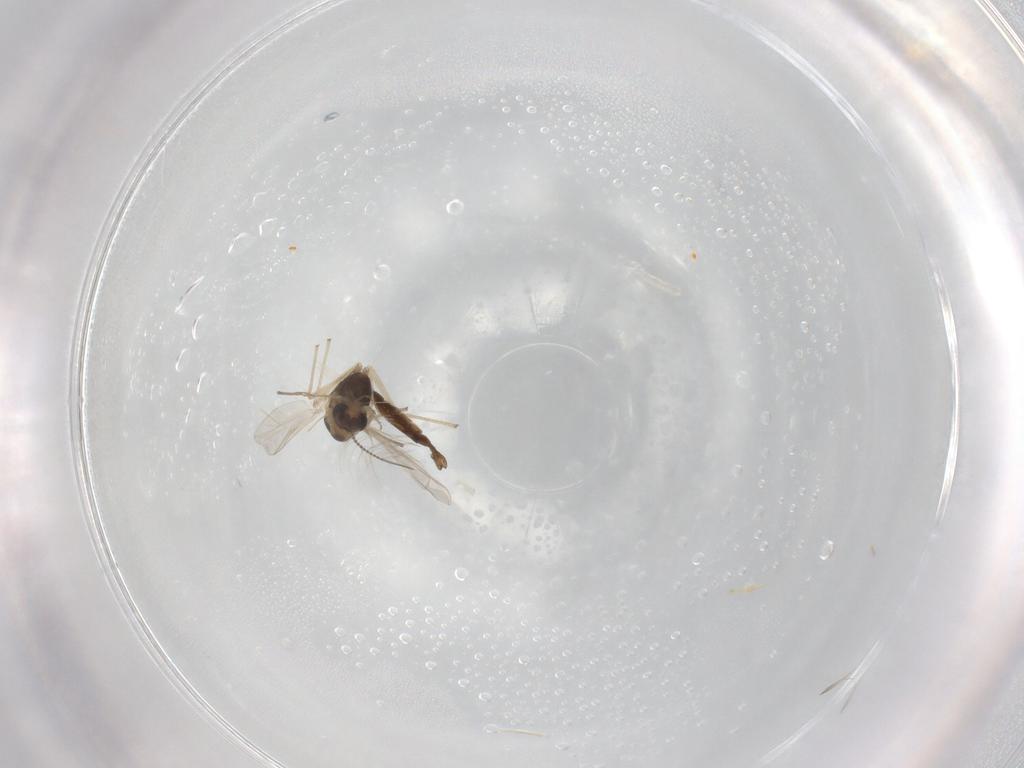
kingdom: Animalia
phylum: Arthropoda
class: Insecta
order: Diptera
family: Chironomidae
